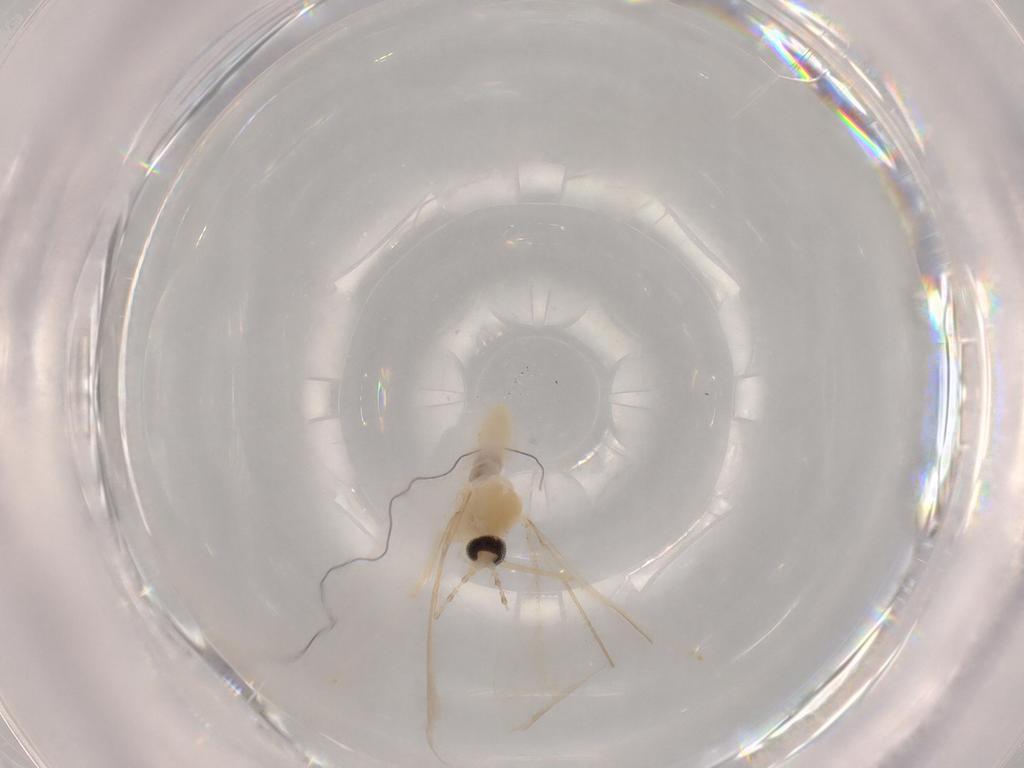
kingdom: Animalia
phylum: Arthropoda
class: Insecta
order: Diptera
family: Cecidomyiidae
